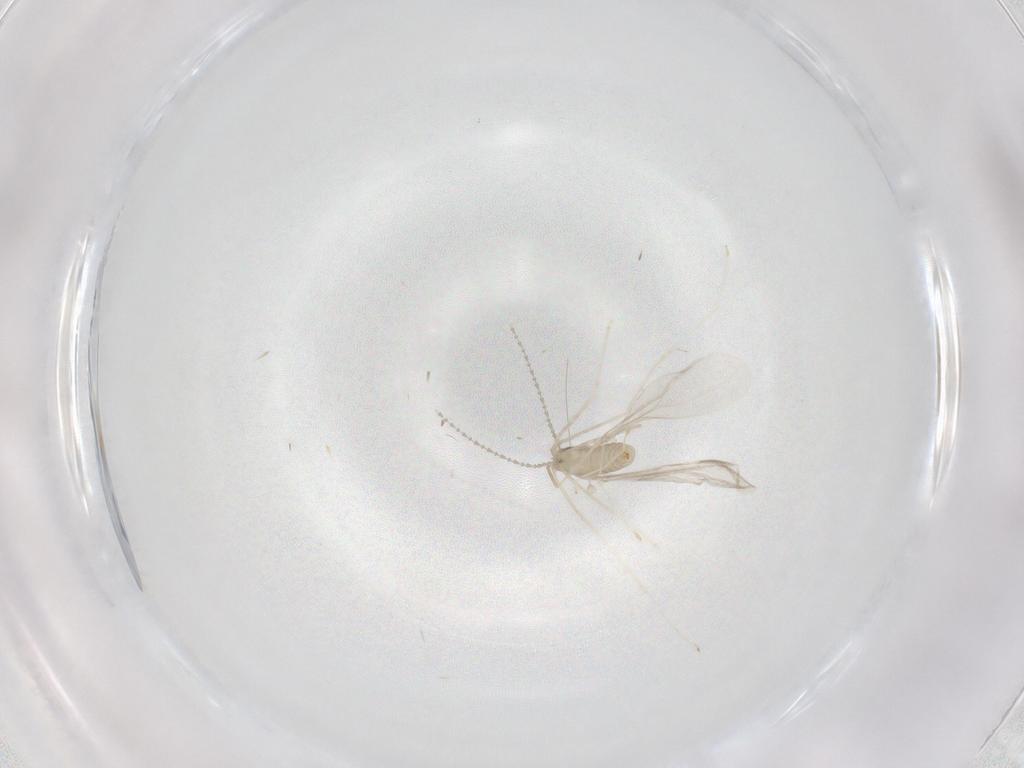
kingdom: Animalia
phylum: Arthropoda
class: Insecta
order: Diptera
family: Cecidomyiidae
